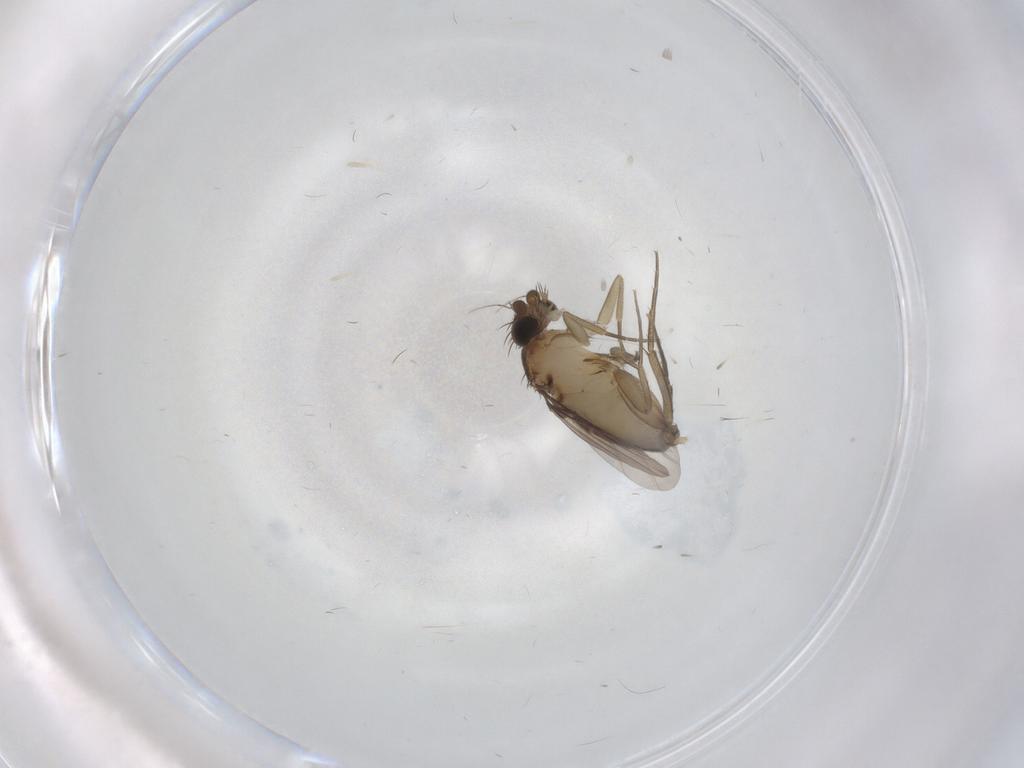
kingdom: Animalia
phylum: Arthropoda
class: Insecta
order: Diptera
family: Phoridae
